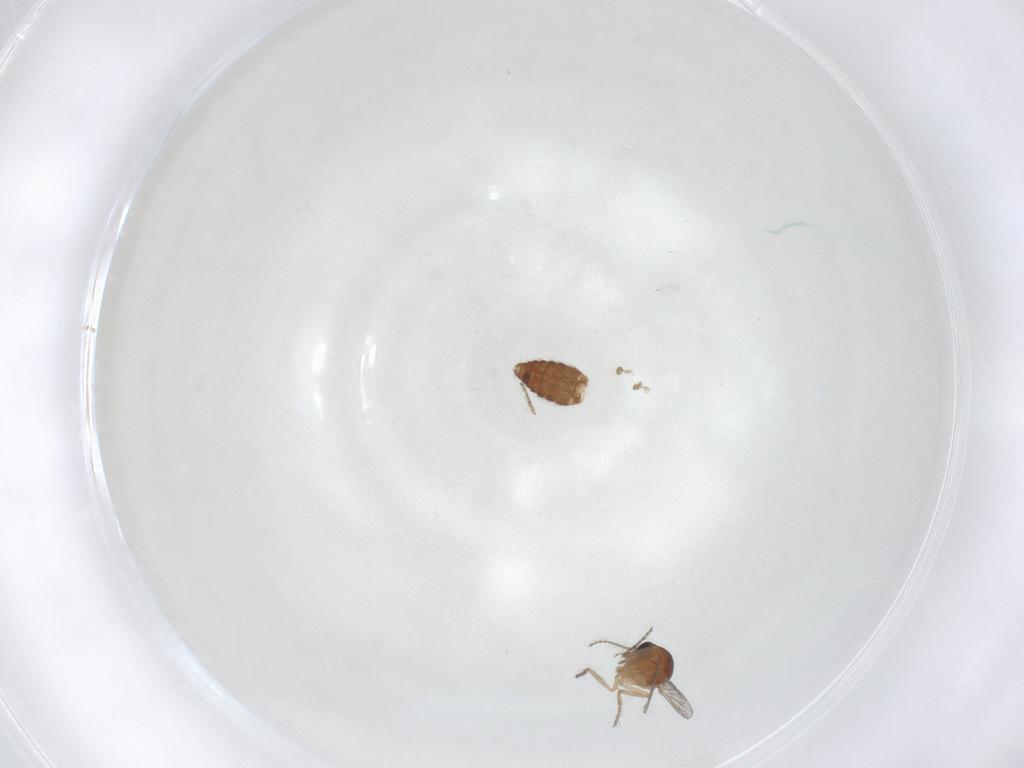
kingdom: Animalia
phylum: Arthropoda
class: Insecta
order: Diptera
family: Ceratopogonidae
